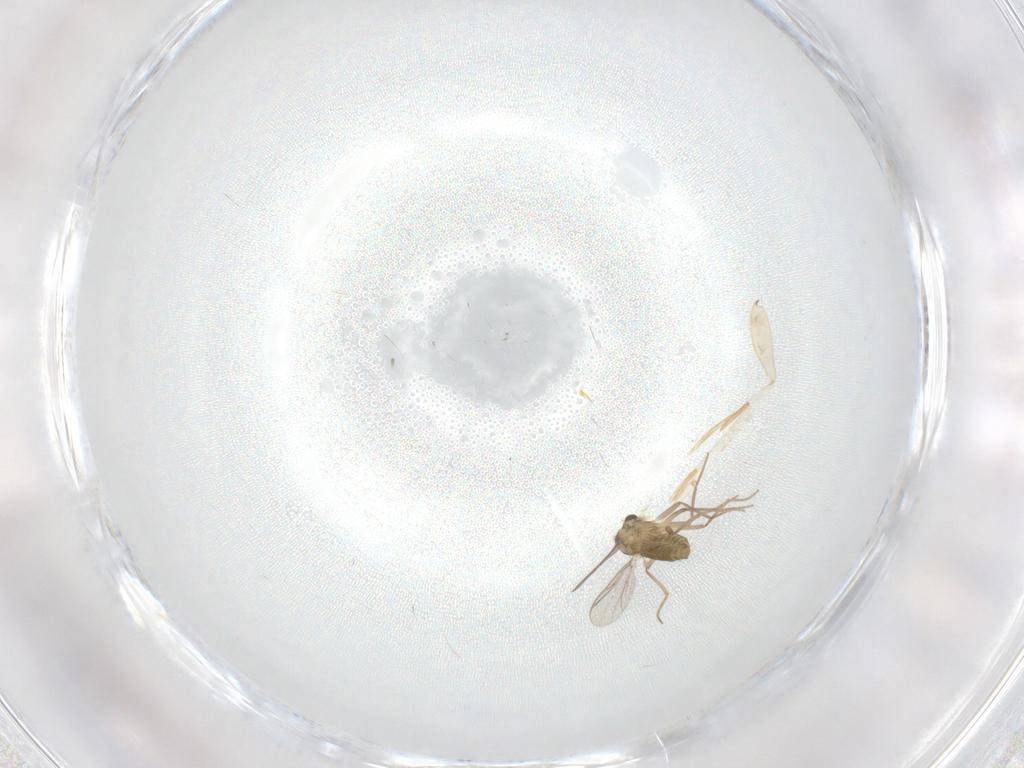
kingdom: Animalia
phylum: Arthropoda
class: Insecta
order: Diptera
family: Chironomidae
